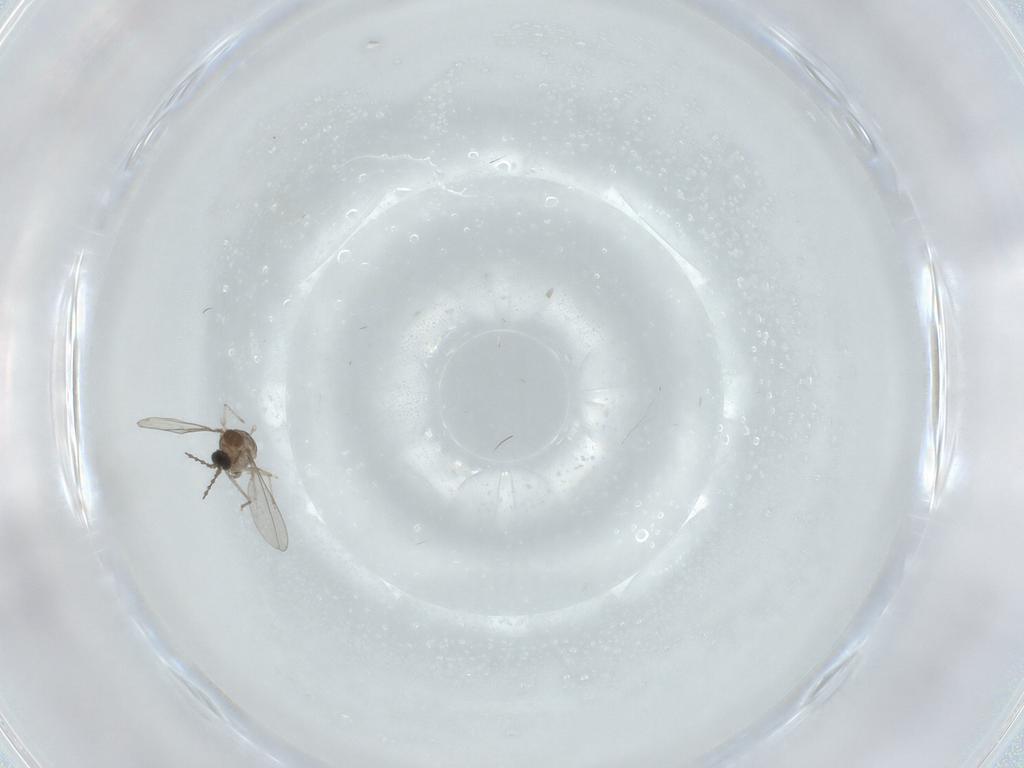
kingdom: Animalia
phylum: Arthropoda
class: Insecta
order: Diptera
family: Cecidomyiidae
